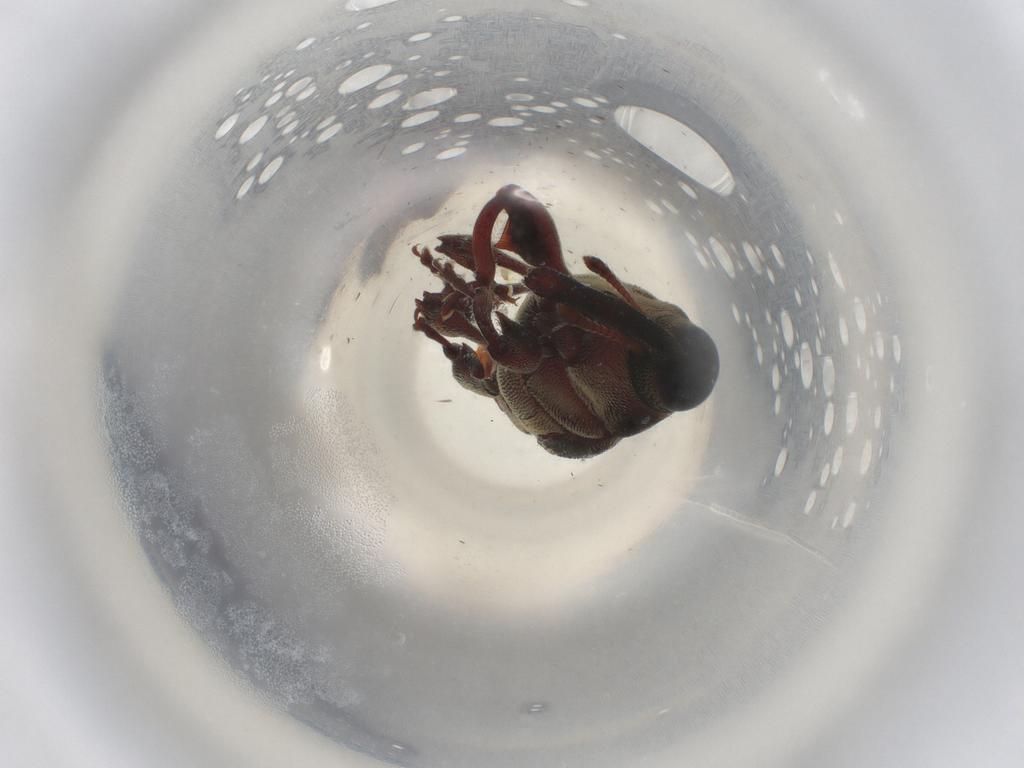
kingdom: Animalia
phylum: Arthropoda
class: Insecta
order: Coleoptera
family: Curculionidae
